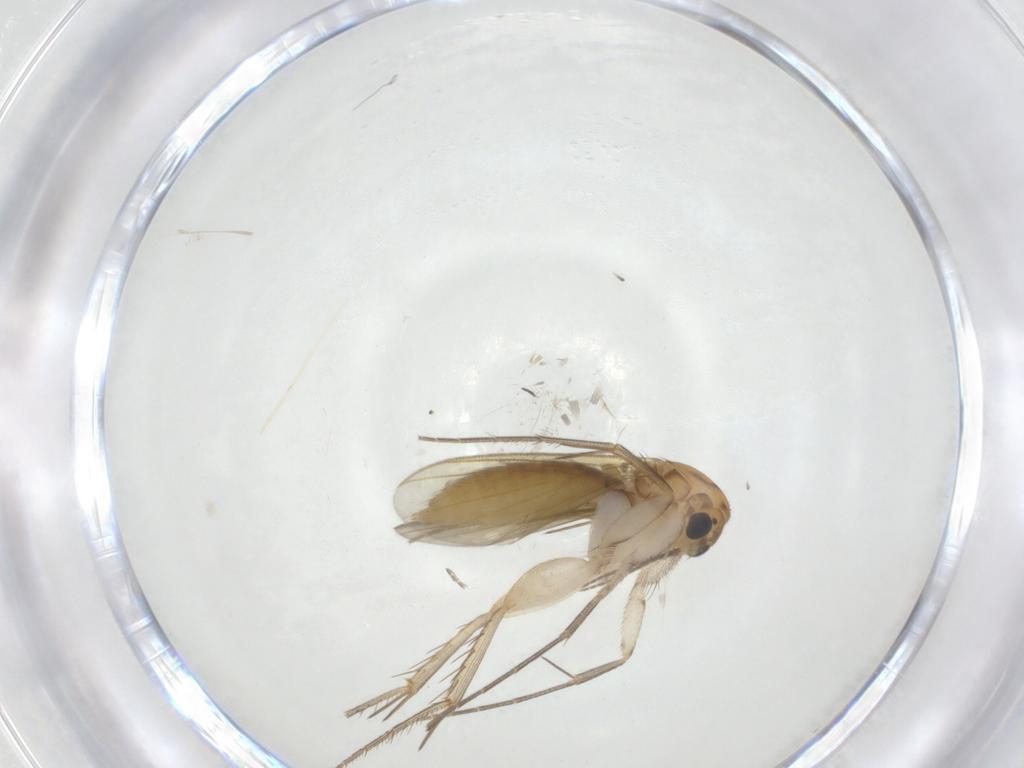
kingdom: Animalia
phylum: Arthropoda
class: Insecta
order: Diptera
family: Mycetophilidae
